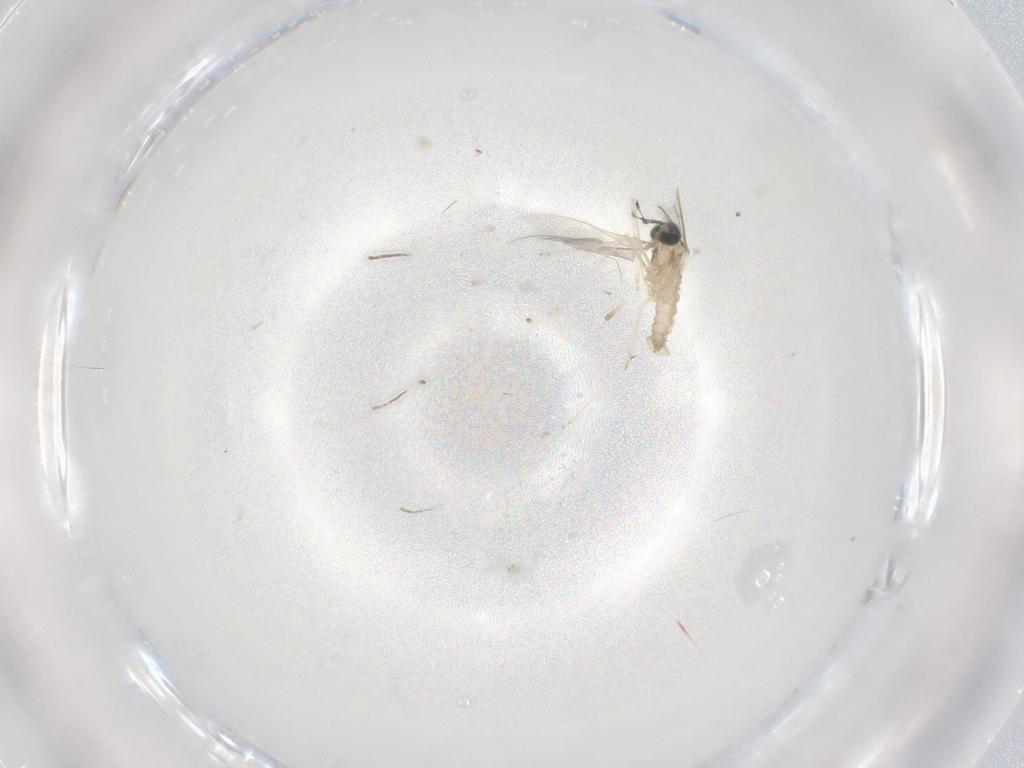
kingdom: Animalia
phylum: Arthropoda
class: Insecta
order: Diptera
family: Cecidomyiidae
